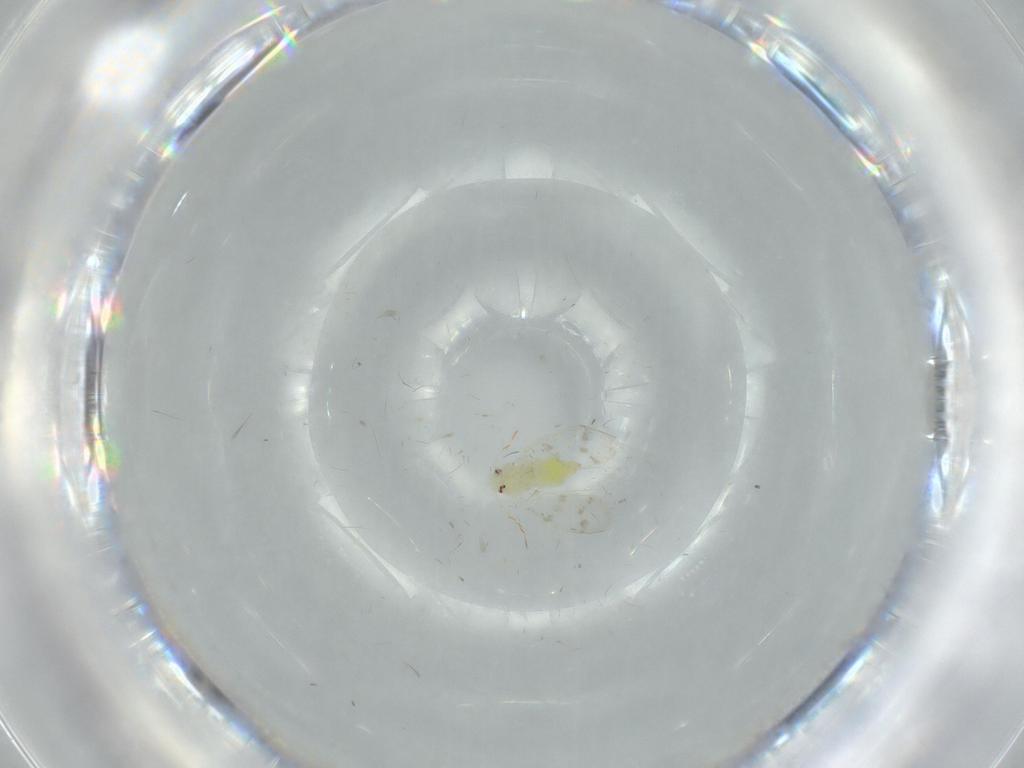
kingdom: Animalia
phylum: Arthropoda
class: Insecta
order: Hemiptera
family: Aleyrodidae
